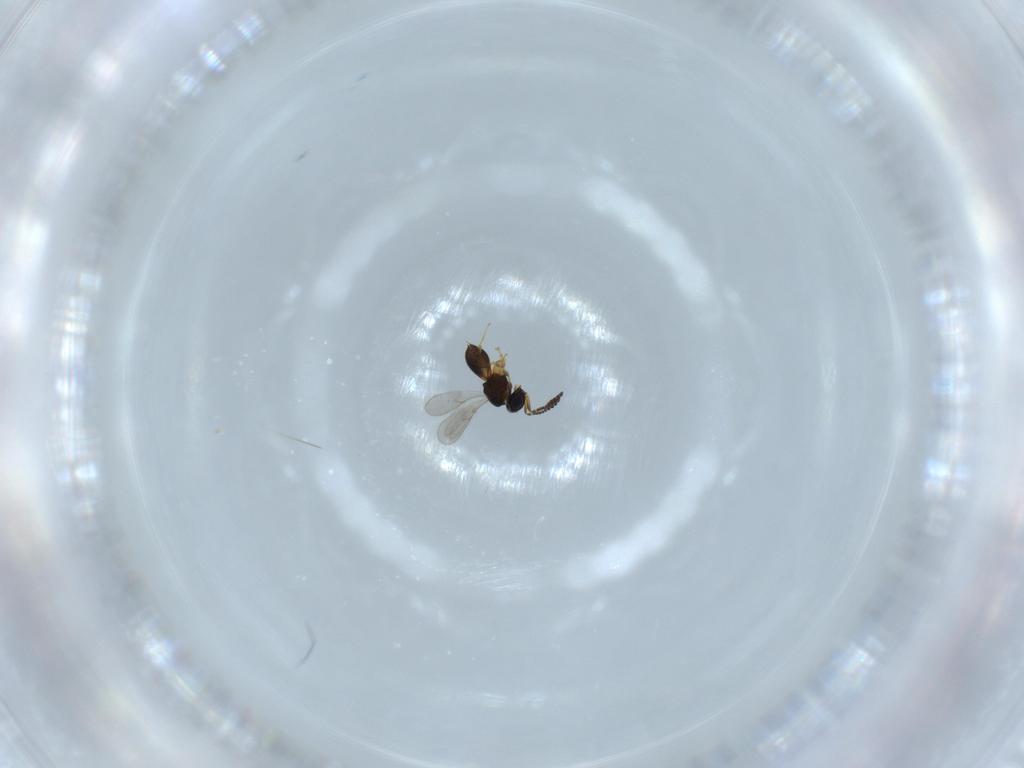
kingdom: Animalia
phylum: Arthropoda
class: Insecta
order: Hymenoptera
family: Scelionidae
